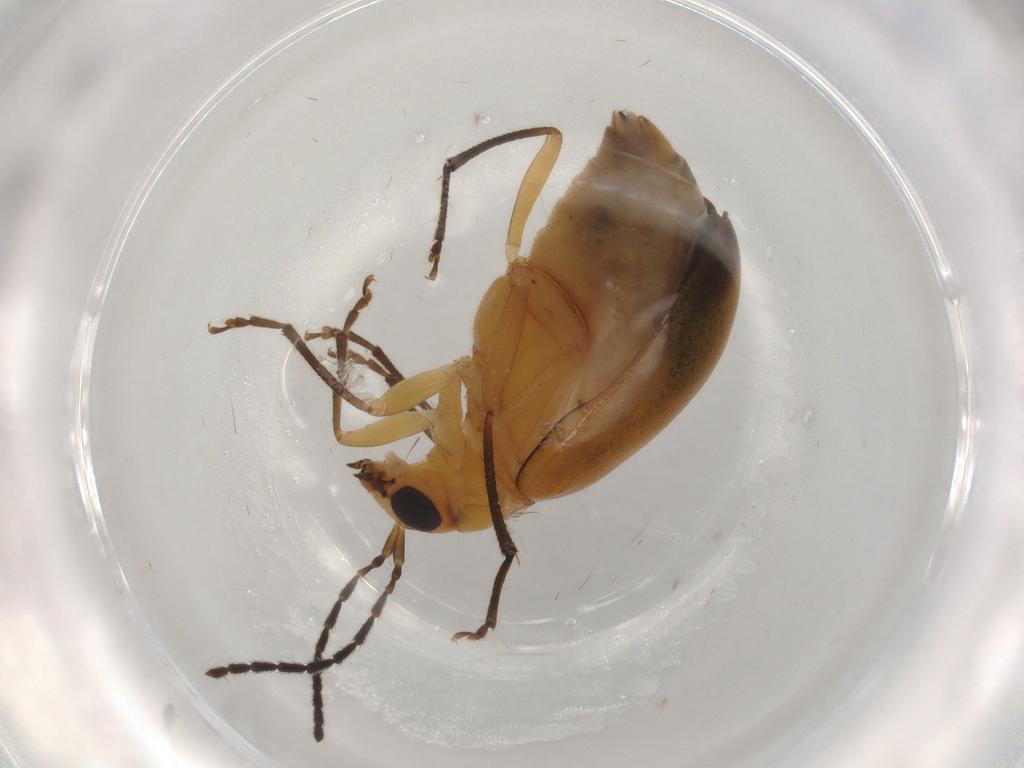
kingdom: Animalia
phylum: Arthropoda
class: Insecta
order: Coleoptera
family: Chrysomelidae
